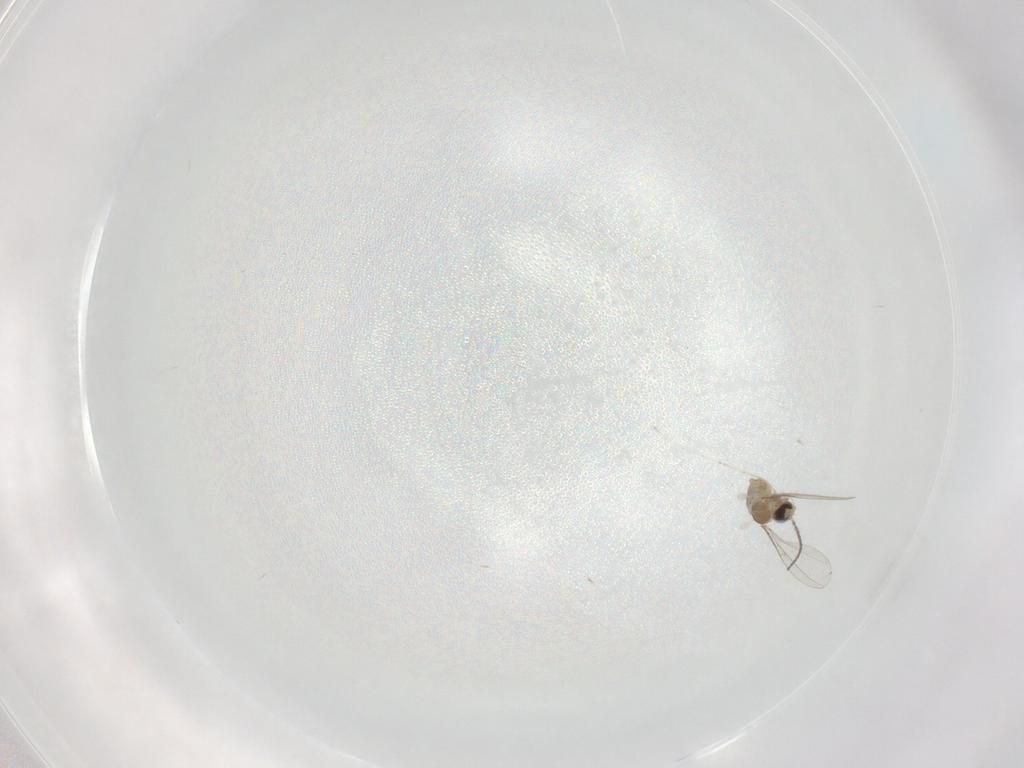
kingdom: Animalia
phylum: Arthropoda
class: Insecta
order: Diptera
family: Cecidomyiidae
